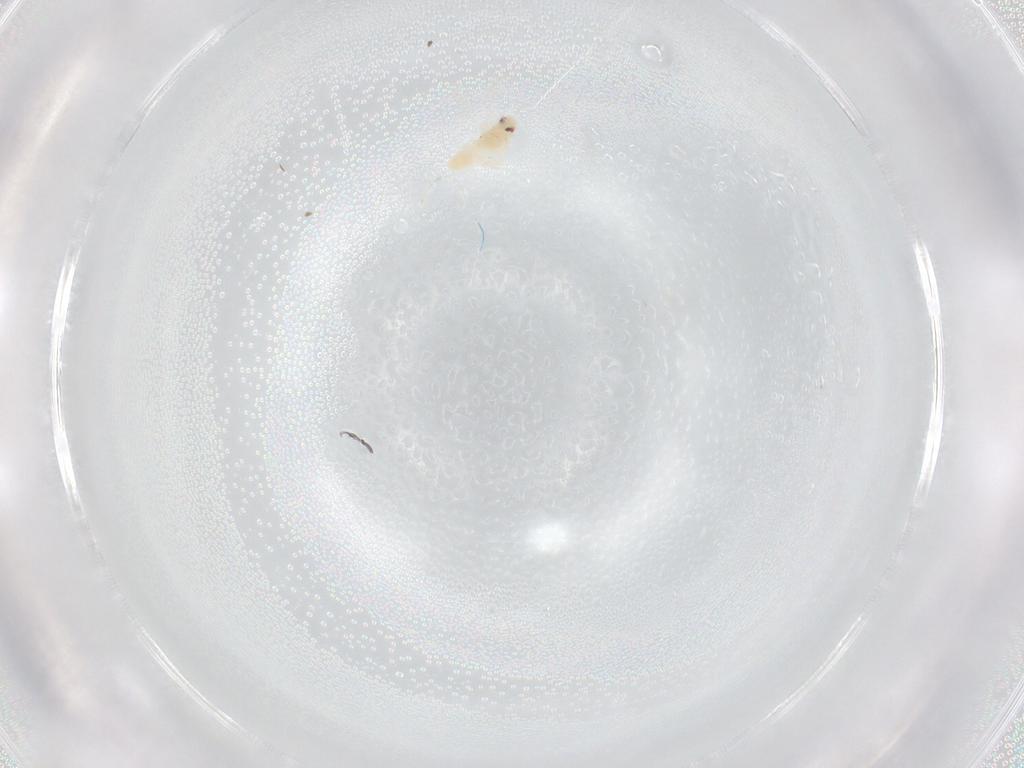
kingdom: Animalia
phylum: Arthropoda
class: Insecta
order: Hemiptera
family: Aleyrodidae
